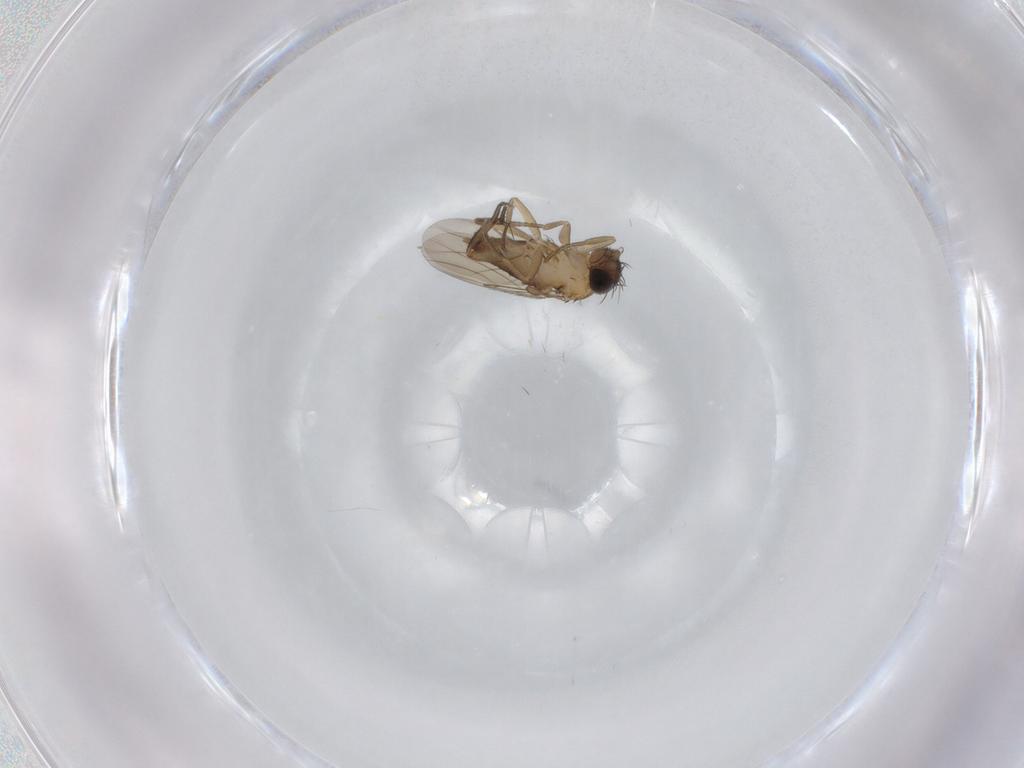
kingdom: Animalia
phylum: Arthropoda
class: Insecta
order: Diptera
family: Phoridae
